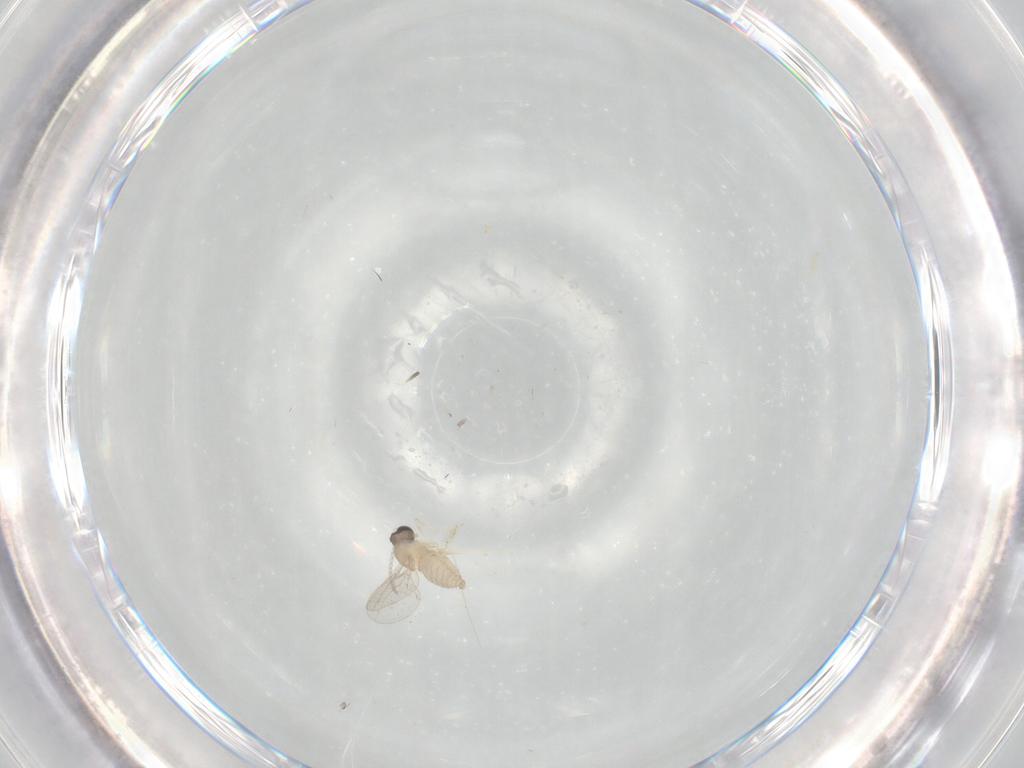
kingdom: Animalia
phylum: Arthropoda
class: Insecta
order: Diptera
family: Cecidomyiidae
